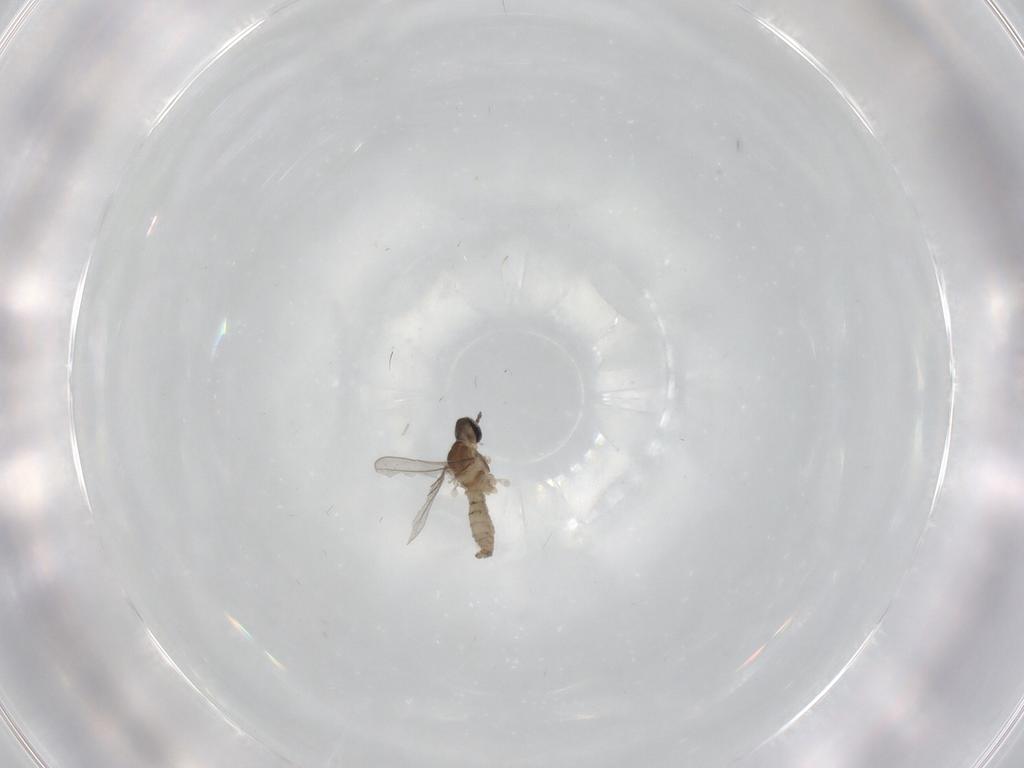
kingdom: Animalia
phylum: Arthropoda
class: Insecta
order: Diptera
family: Cecidomyiidae
